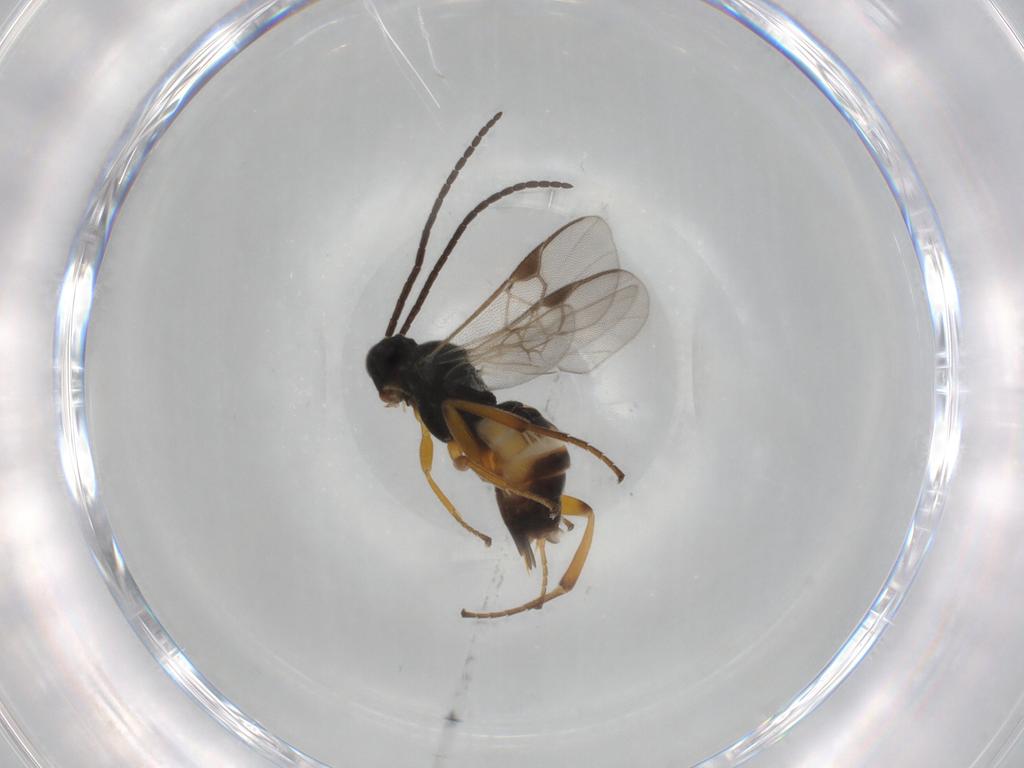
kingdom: Animalia
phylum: Arthropoda
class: Insecta
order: Hymenoptera
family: Braconidae
